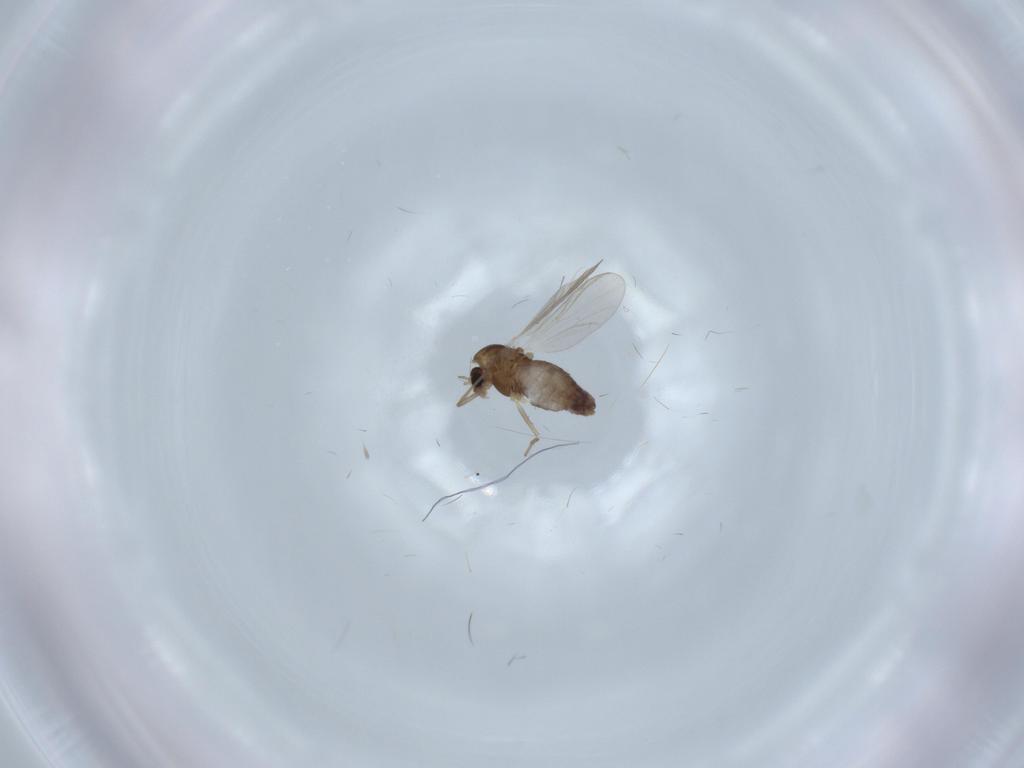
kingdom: Animalia
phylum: Arthropoda
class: Insecta
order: Diptera
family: Chironomidae
